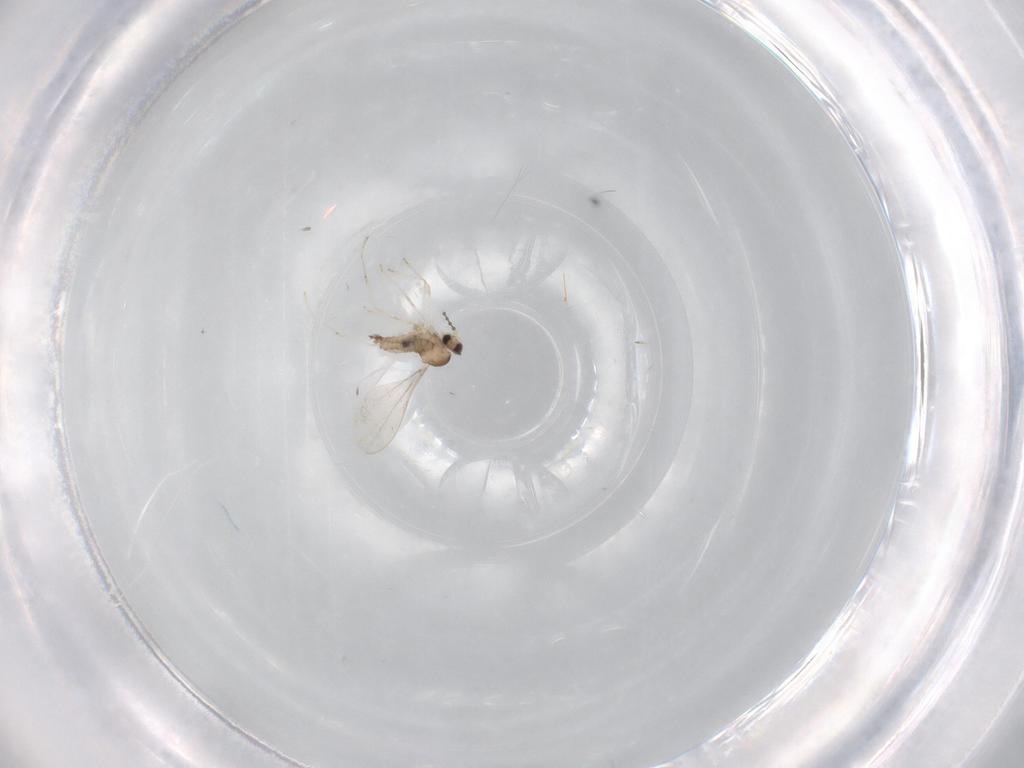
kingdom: Animalia
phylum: Arthropoda
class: Insecta
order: Diptera
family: Cecidomyiidae
